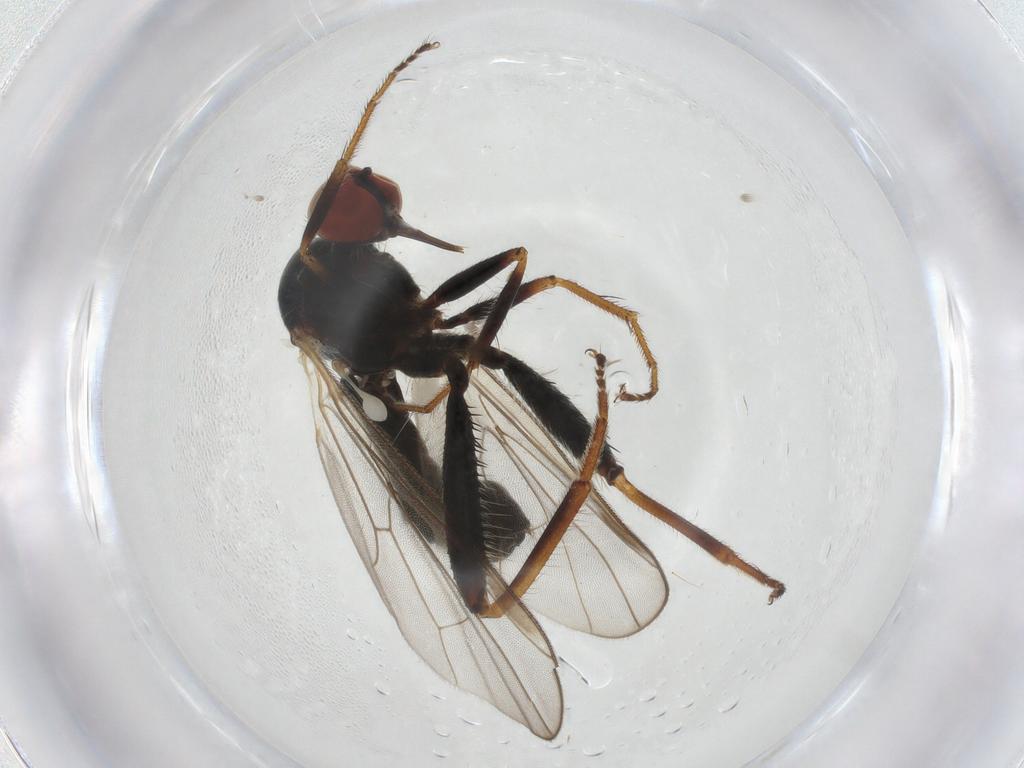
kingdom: Animalia
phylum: Arthropoda
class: Insecta
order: Diptera
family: Hybotidae
